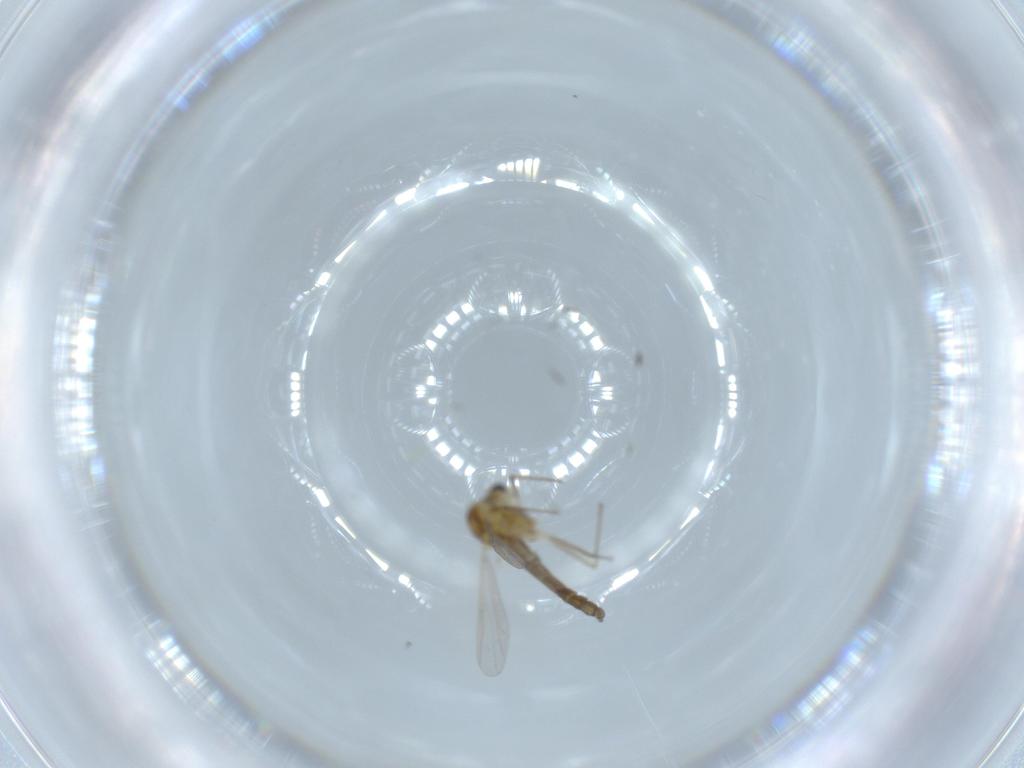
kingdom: Animalia
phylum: Arthropoda
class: Insecta
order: Diptera
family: Chironomidae
